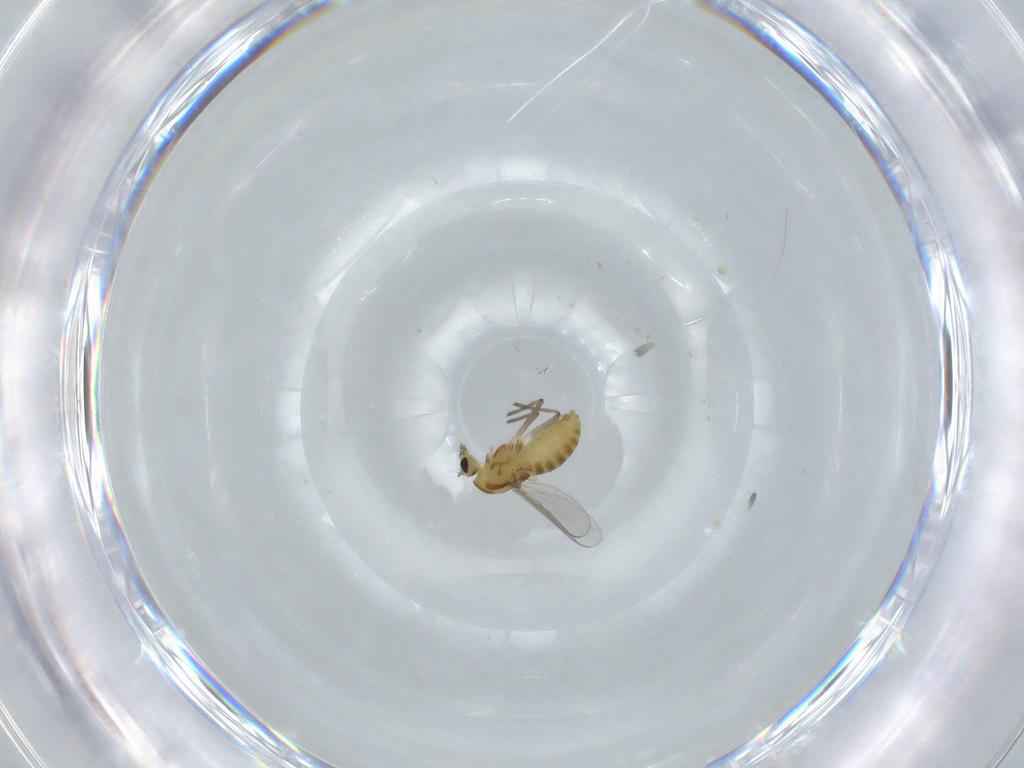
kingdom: Animalia
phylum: Arthropoda
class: Insecta
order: Diptera
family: Chironomidae
